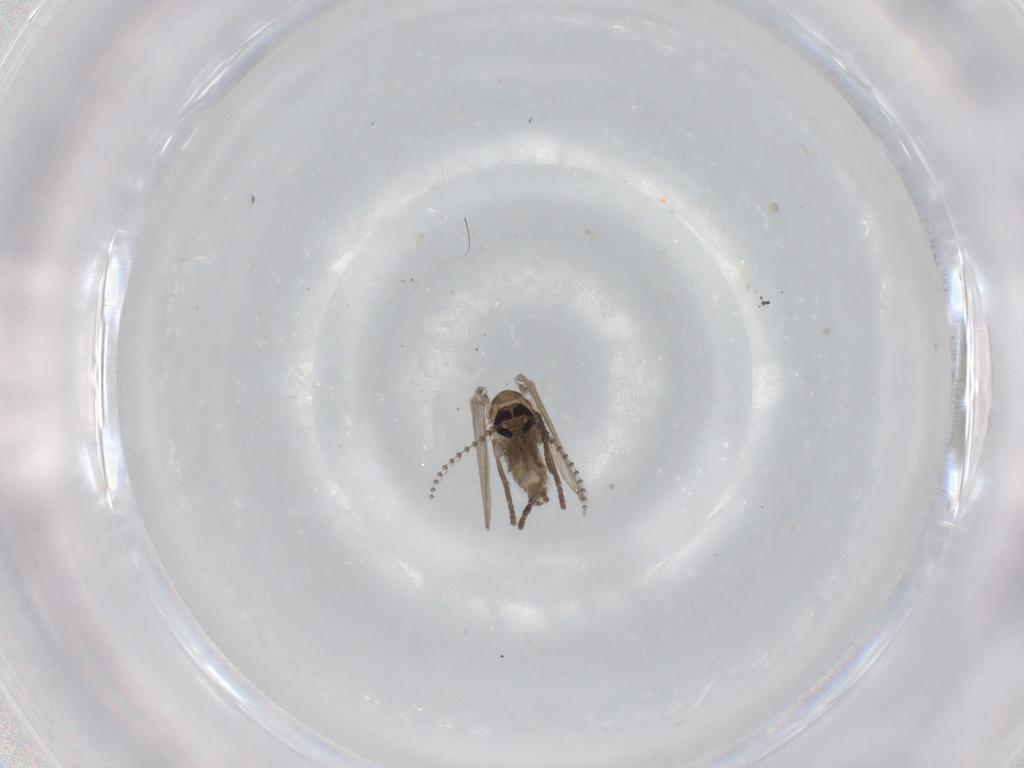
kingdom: Animalia
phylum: Arthropoda
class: Insecta
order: Diptera
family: Psychodidae
